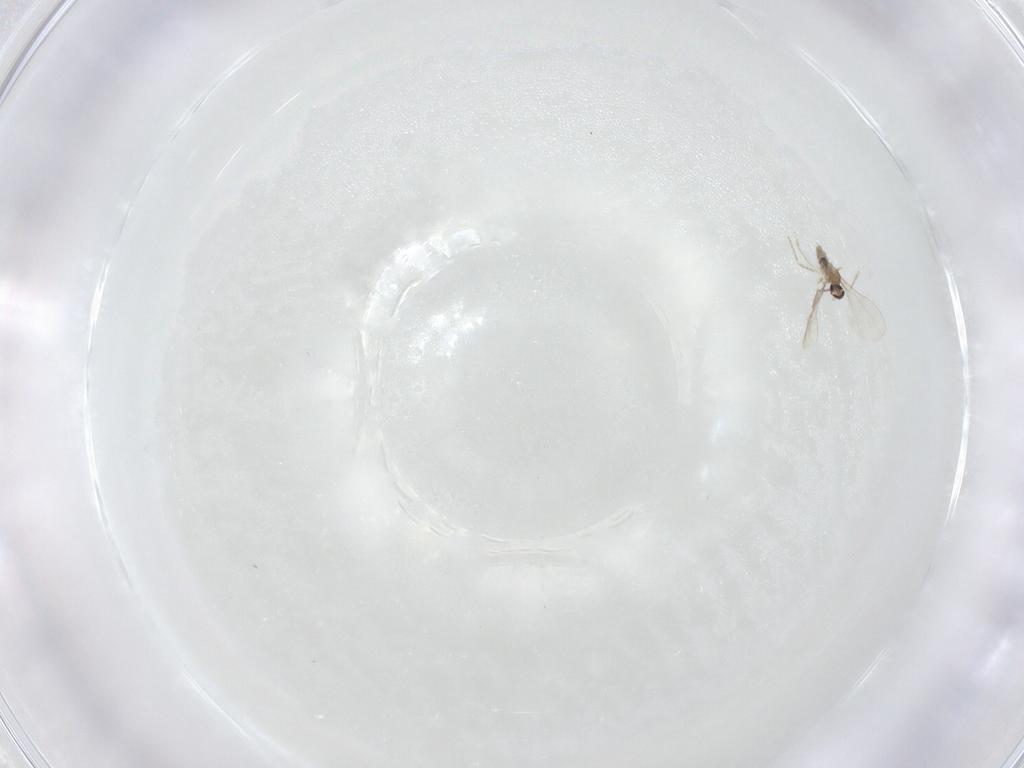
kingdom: Animalia
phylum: Arthropoda
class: Insecta
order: Diptera
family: Cecidomyiidae
